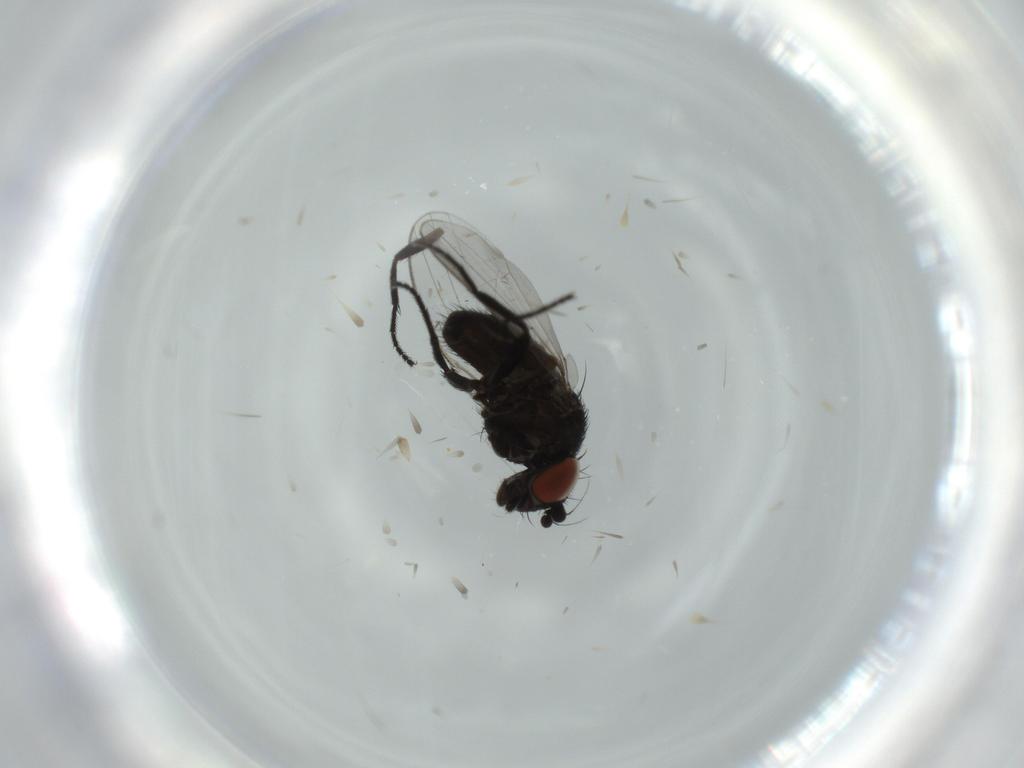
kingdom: Animalia
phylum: Arthropoda
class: Insecta
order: Diptera
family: Milichiidae
